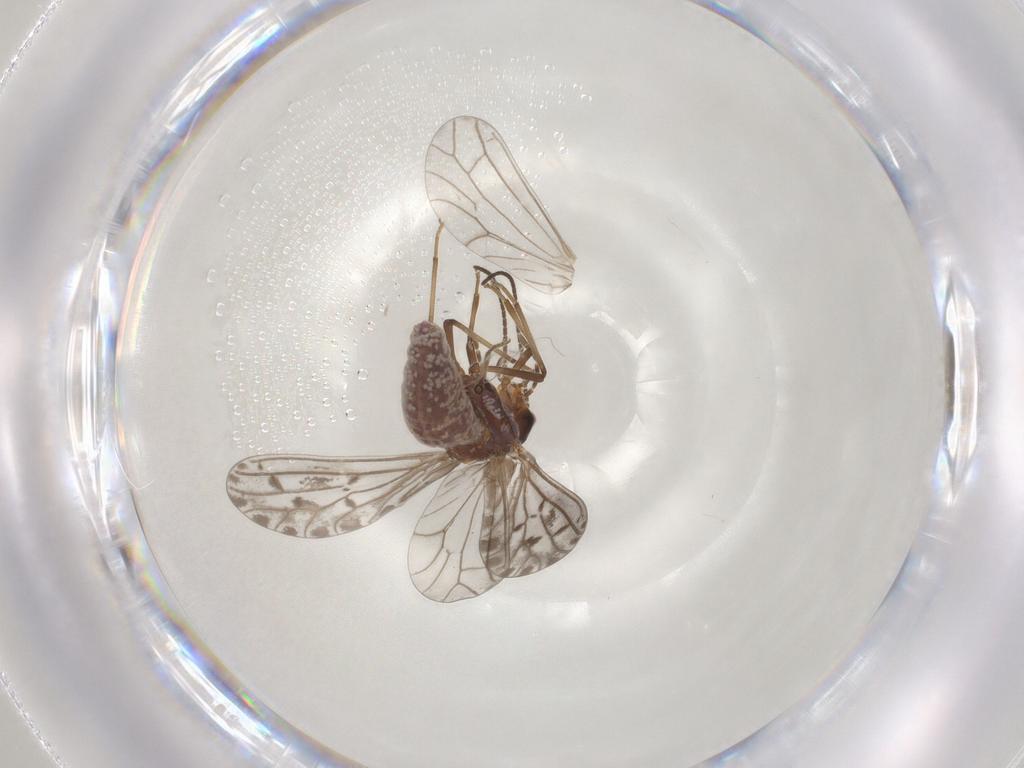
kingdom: Animalia
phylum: Arthropoda
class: Insecta
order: Neuroptera
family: Coniopterygidae
